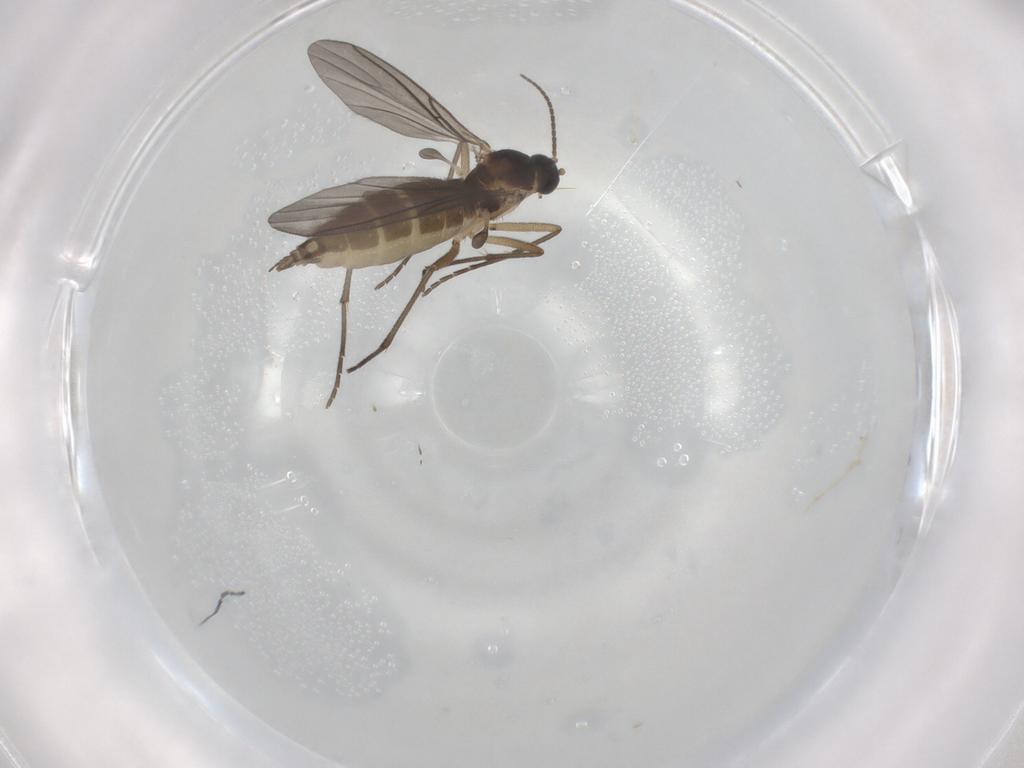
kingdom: Animalia
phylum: Arthropoda
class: Insecta
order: Diptera
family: Sciaridae
